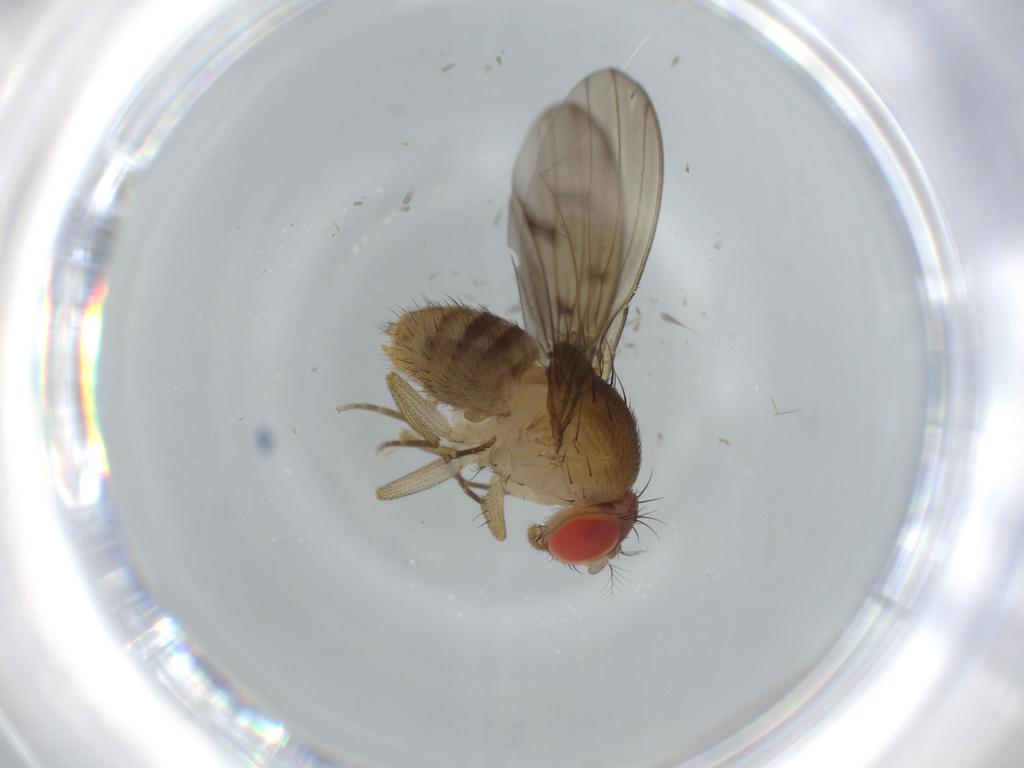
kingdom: Animalia
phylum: Arthropoda
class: Insecta
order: Diptera
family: Drosophilidae
